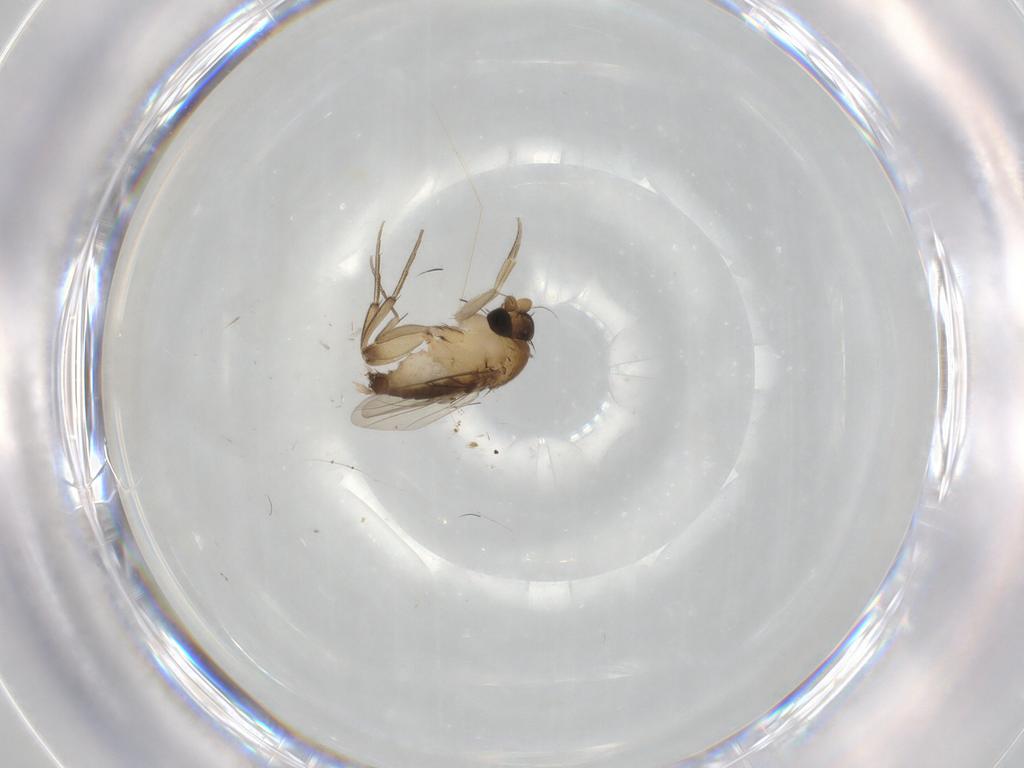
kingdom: Animalia
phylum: Arthropoda
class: Insecta
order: Diptera
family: Phoridae
